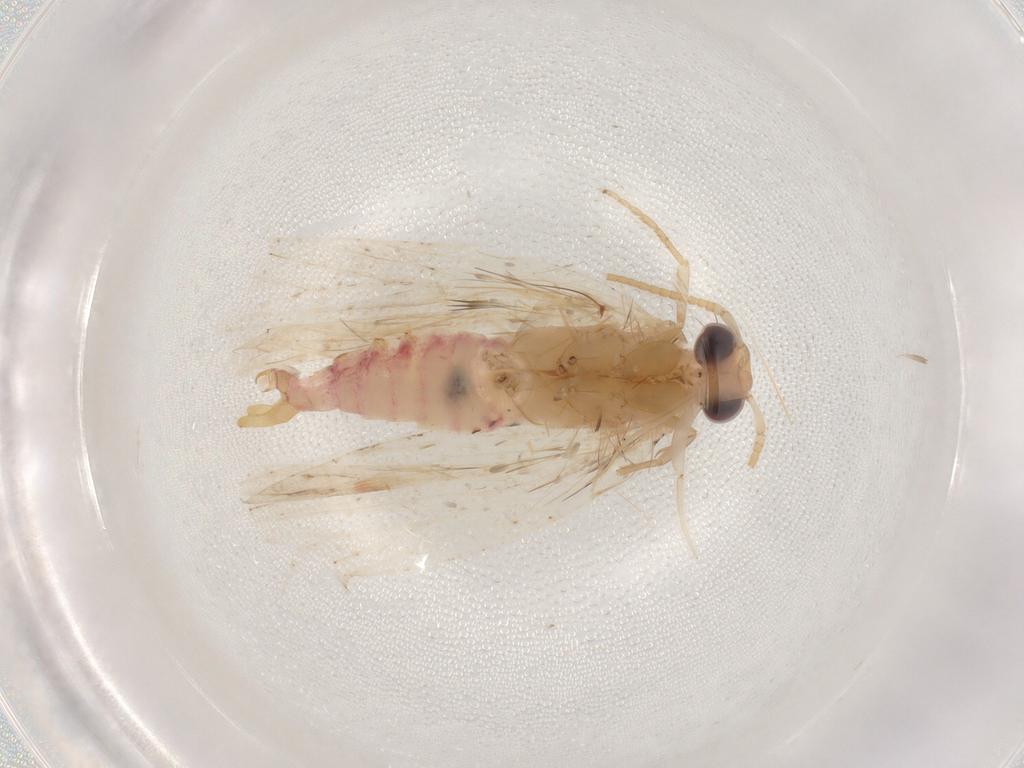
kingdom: Animalia
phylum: Arthropoda
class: Insecta
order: Lepidoptera
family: Lecithoceridae
